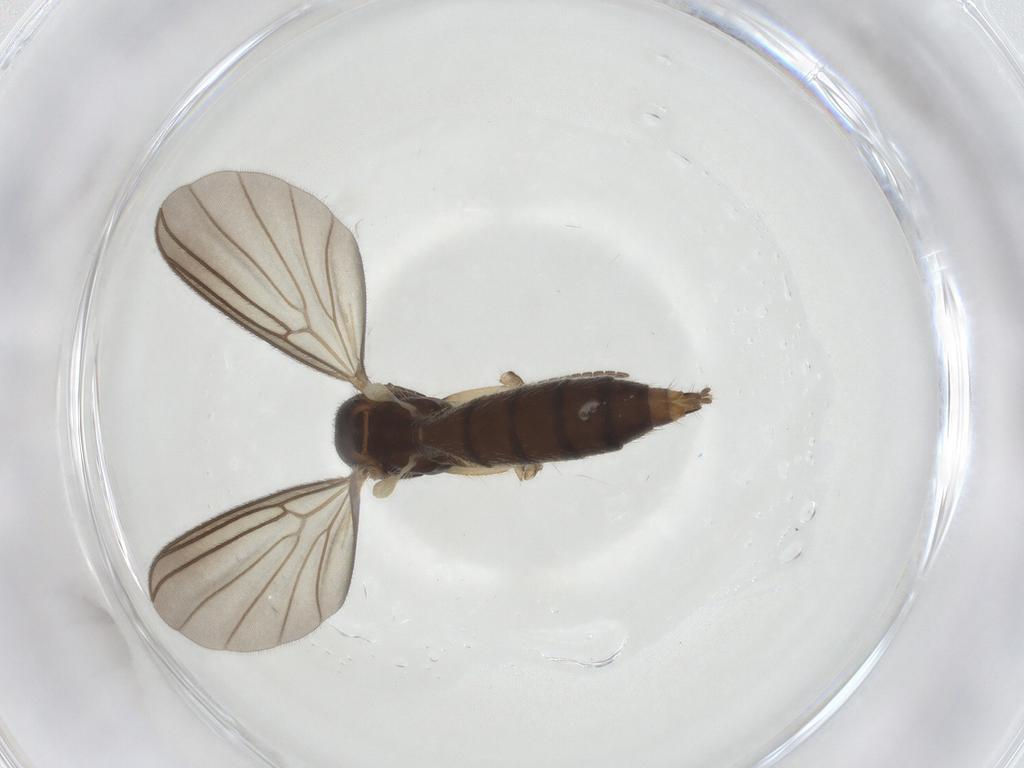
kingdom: Animalia
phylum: Arthropoda
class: Insecta
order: Diptera
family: Mycetophilidae
